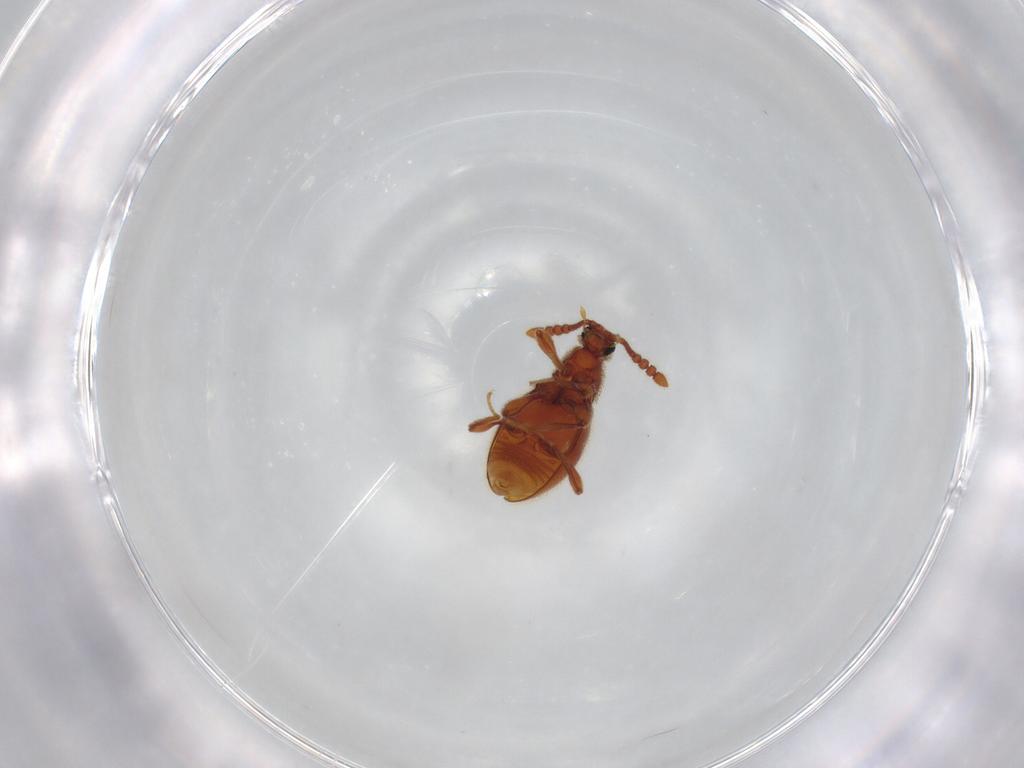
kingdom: Animalia
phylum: Arthropoda
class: Insecta
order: Coleoptera
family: Staphylinidae
